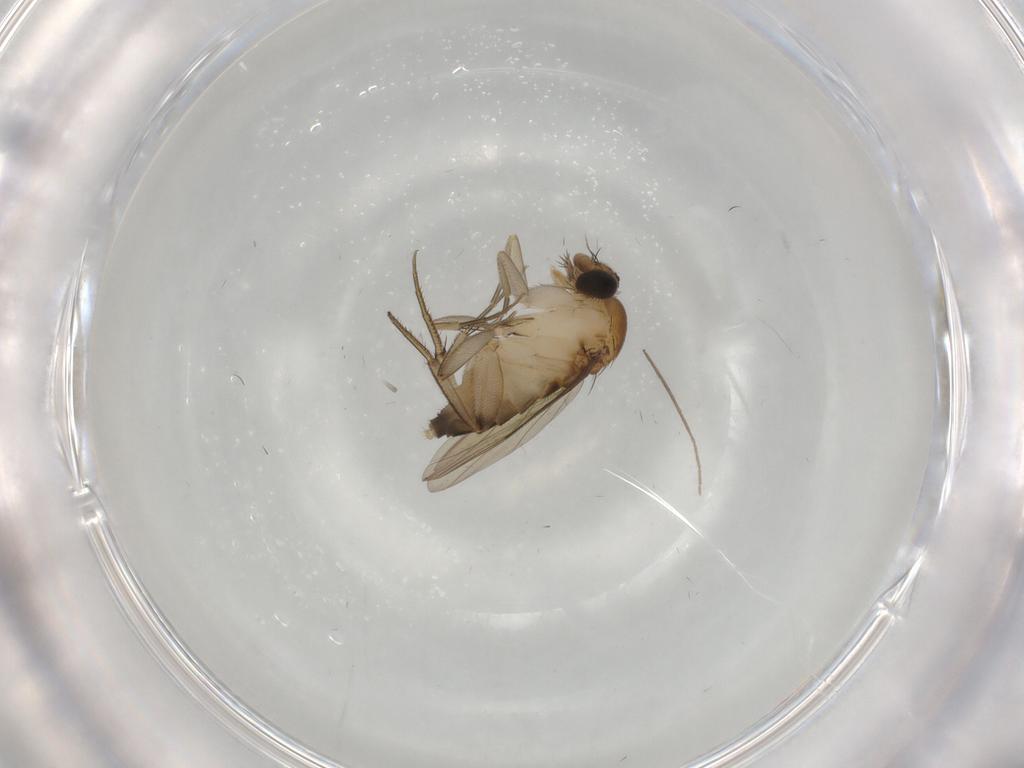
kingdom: Animalia
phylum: Arthropoda
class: Insecta
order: Diptera
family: Phoridae
